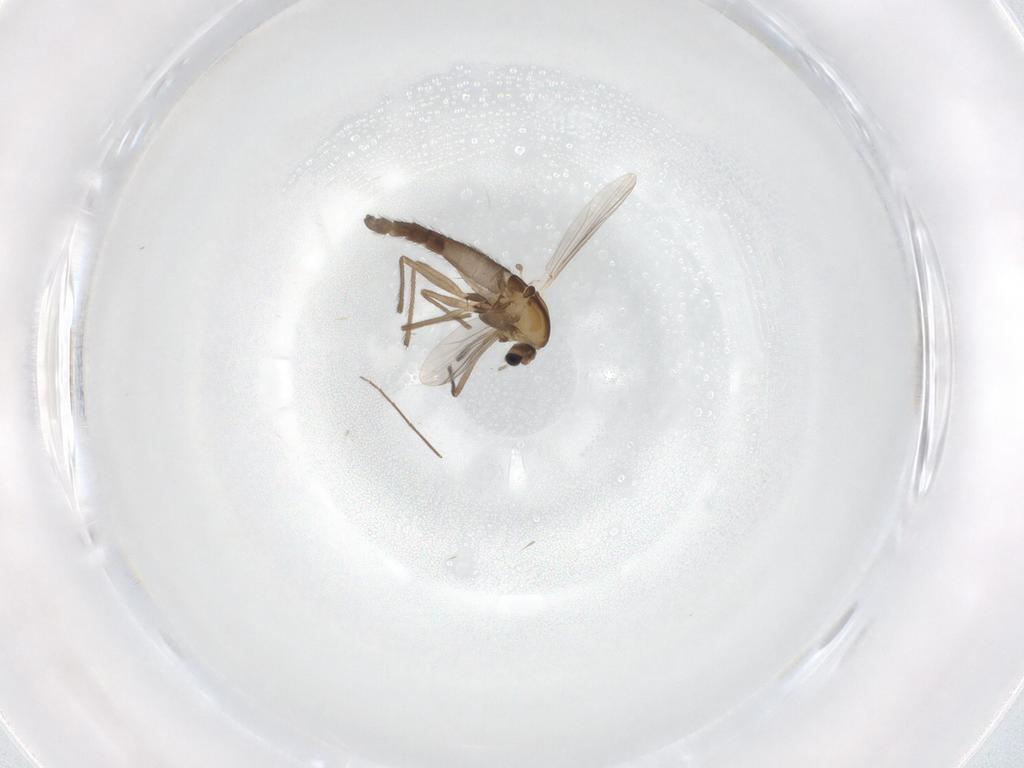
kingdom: Animalia
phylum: Arthropoda
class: Insecta
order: Diptera
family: Chironomidae
